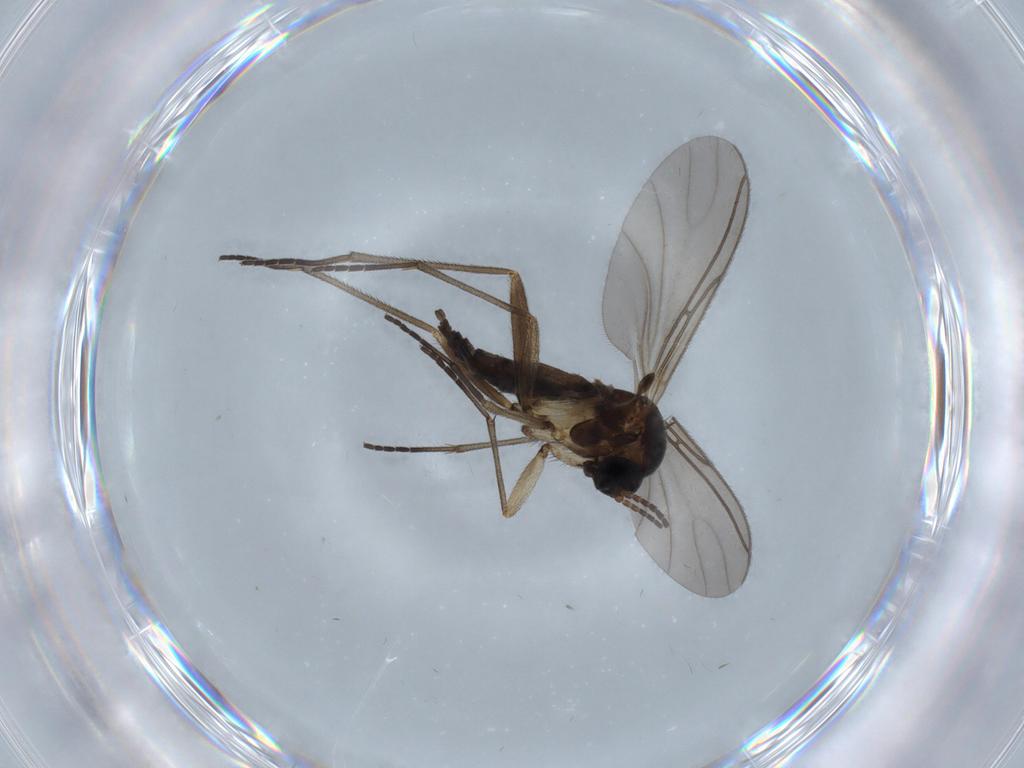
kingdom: Animalia
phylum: Arthropoda
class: Insecta
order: Diptera
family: Sciaridae
